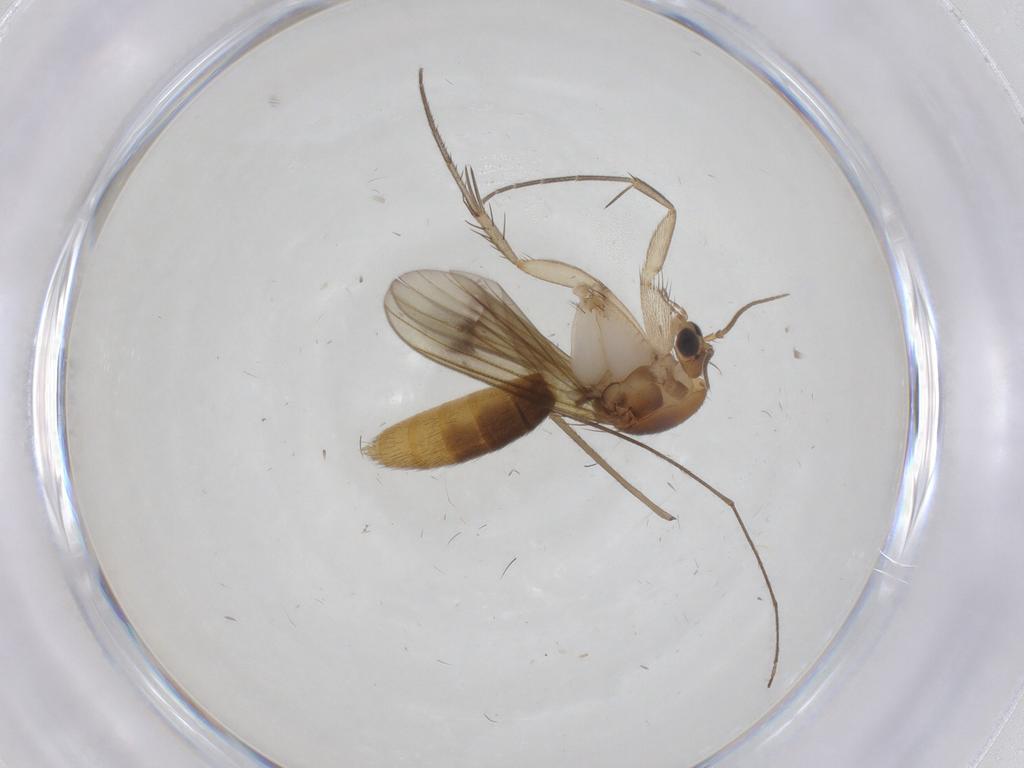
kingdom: Animalia
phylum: Arthropoda
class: Insecta
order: Diptera
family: Mycetophilidae
